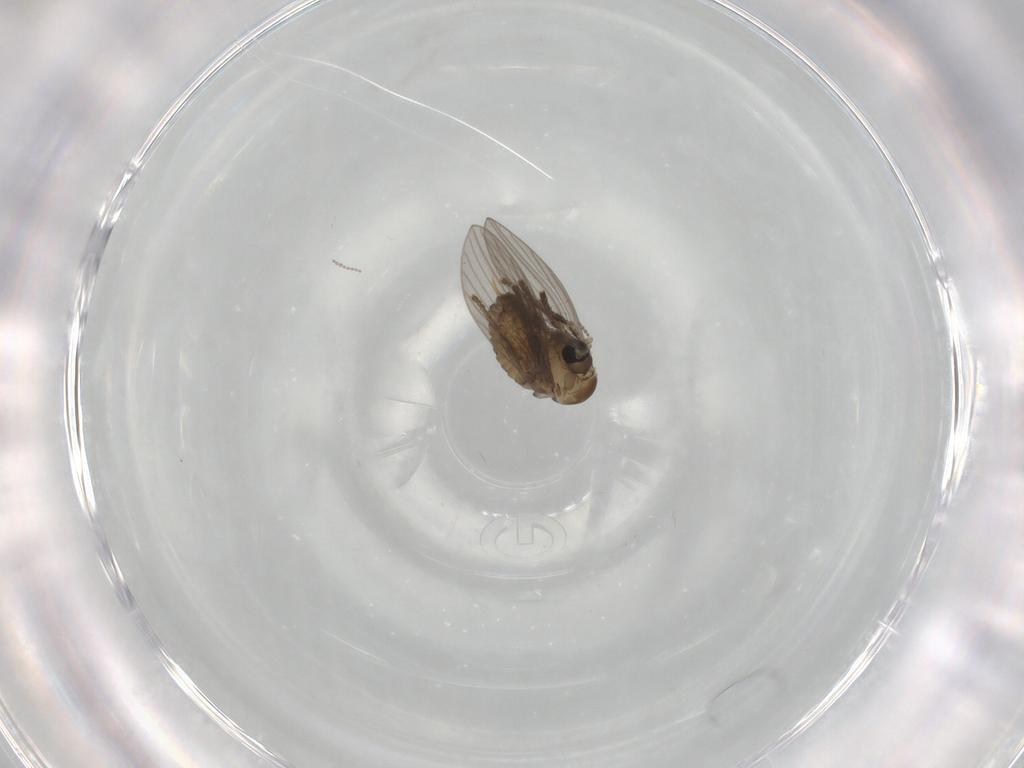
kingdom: Animalia
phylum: Arthropoda
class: Insecta
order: Diptera
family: Psychodidae
